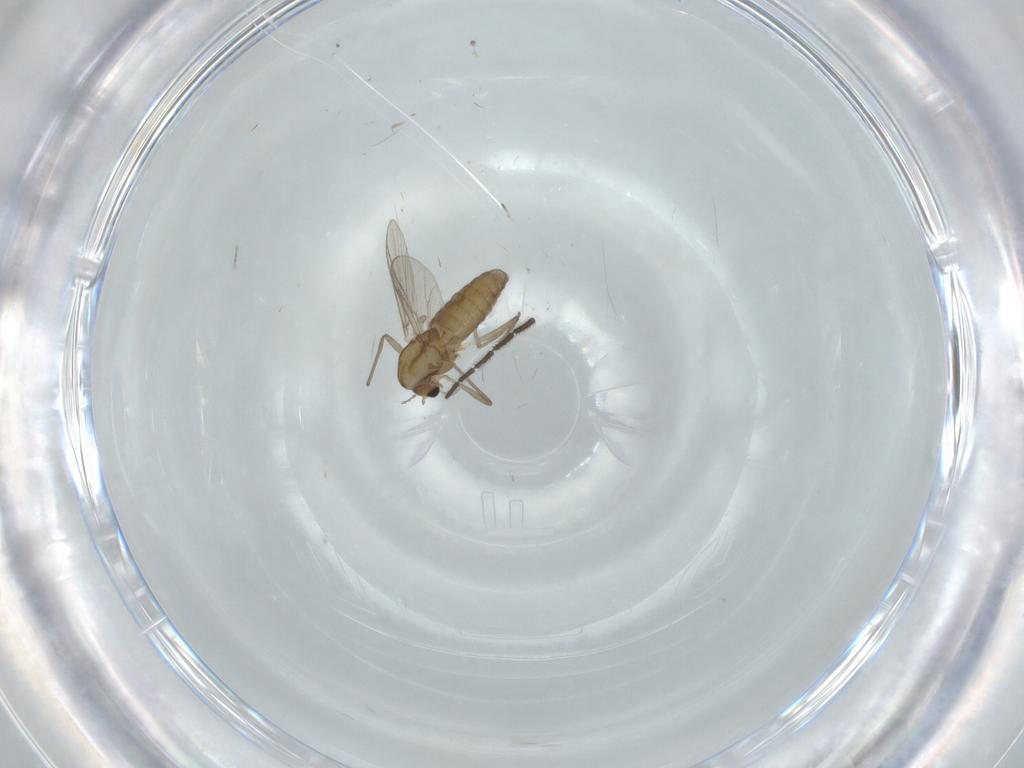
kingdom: Animalia
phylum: Arthropoda
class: Insecta
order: Diptera
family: Chironomidae
